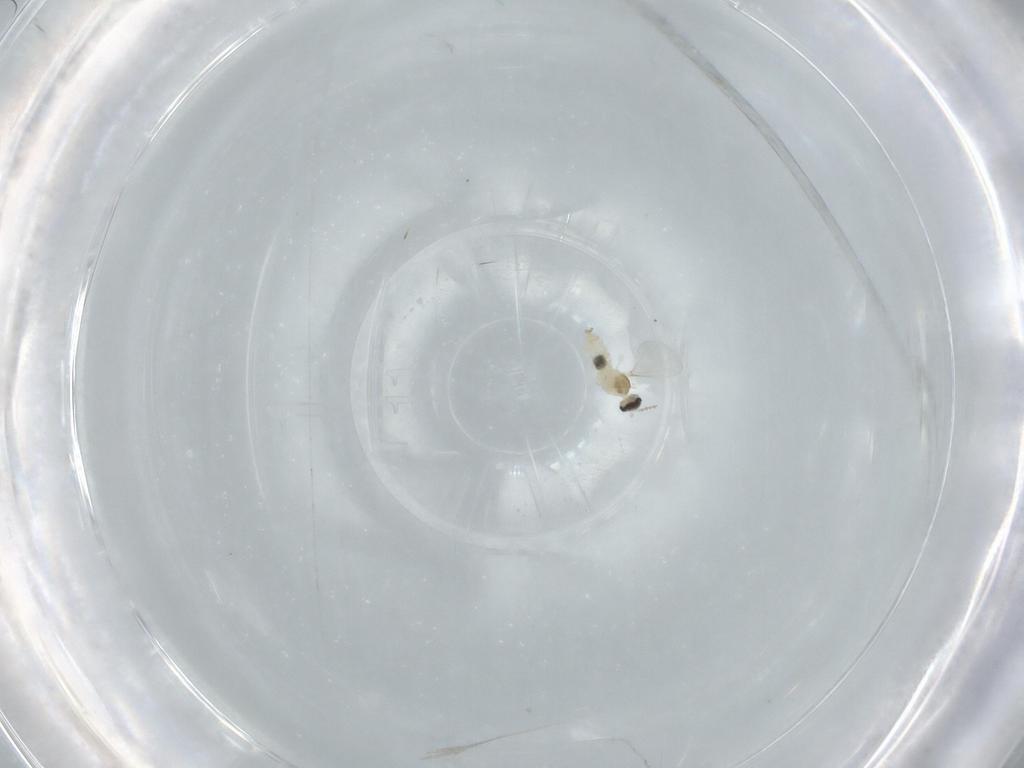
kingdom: Animalia
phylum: Arthropoda
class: Insecta
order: Diptera
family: Cecidomyiidae
